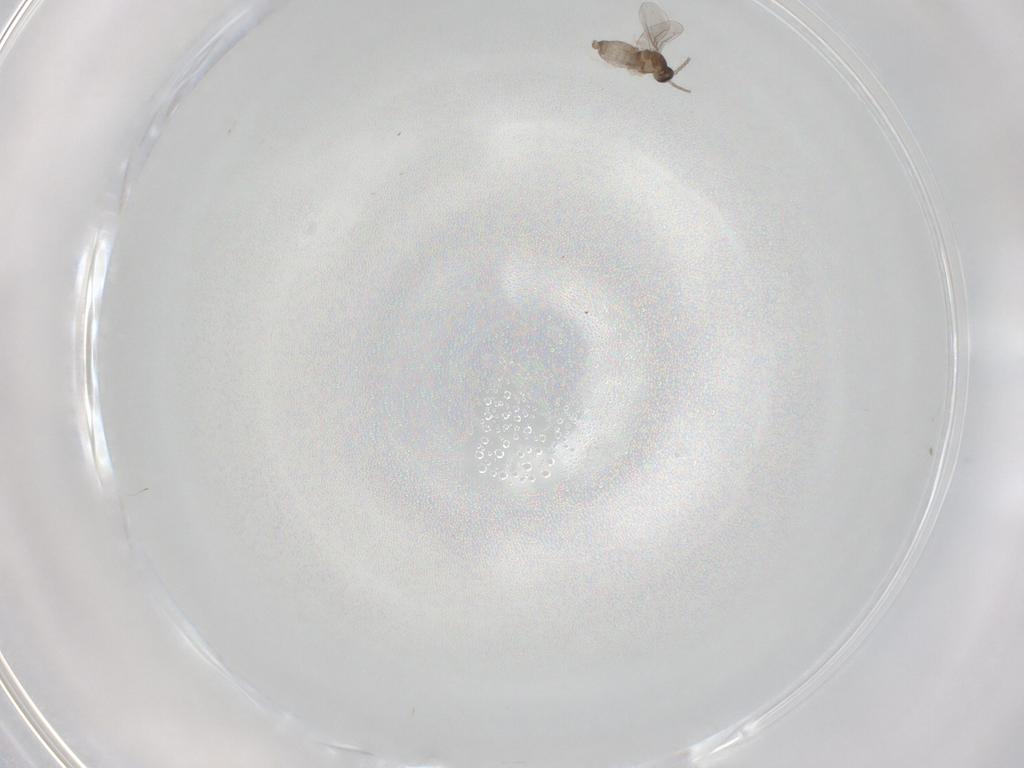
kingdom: Animalia
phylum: Arthropoda
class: Insecta
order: Diptera
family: Cecidomyiidae
